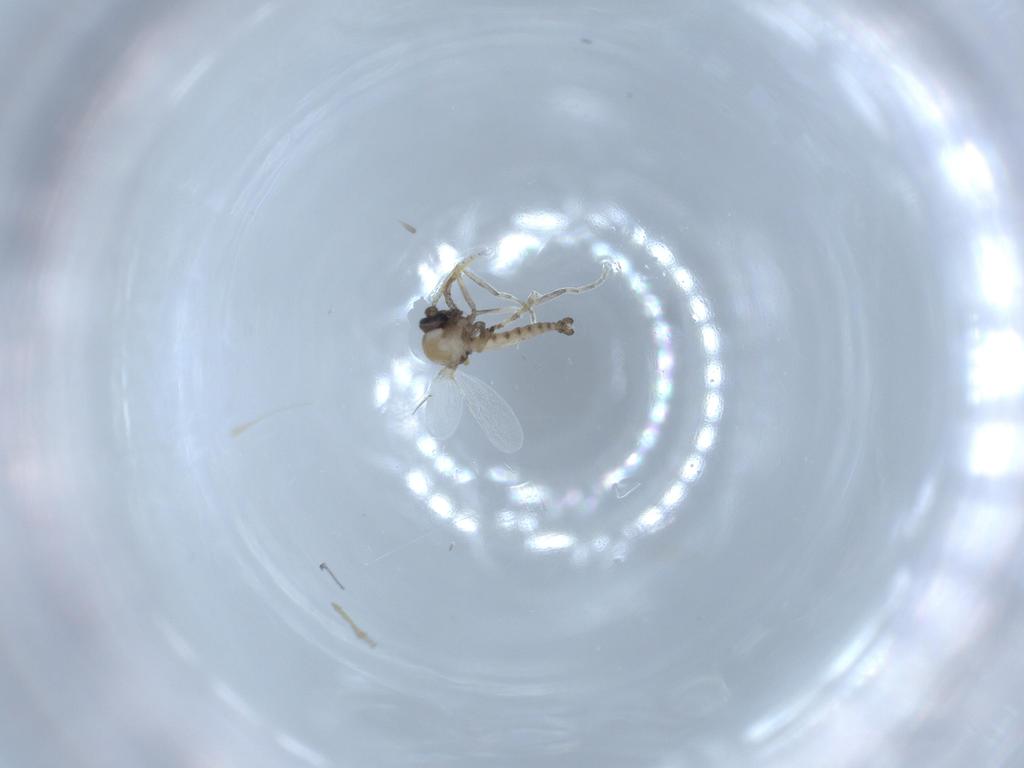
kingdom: Animalia
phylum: Arthropoda
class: Insecta
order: Diptera
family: Ceratopogonidae
